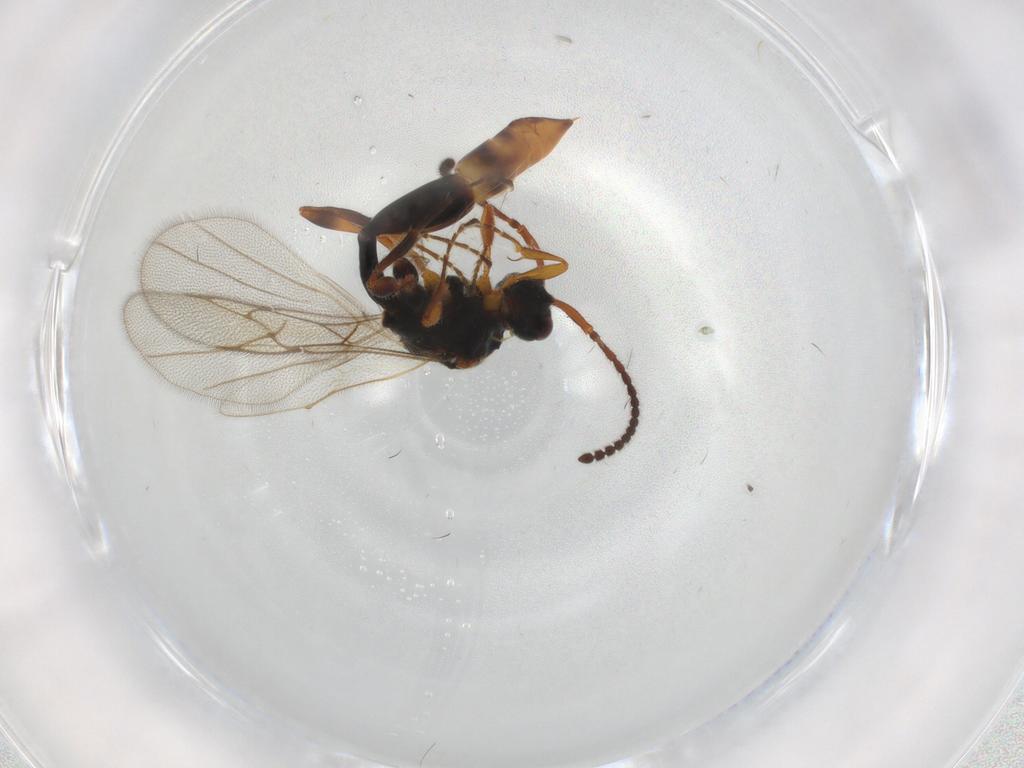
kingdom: Animalia
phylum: Arthropoda
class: Insecta
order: Hymenoptera
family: Diapriidae
